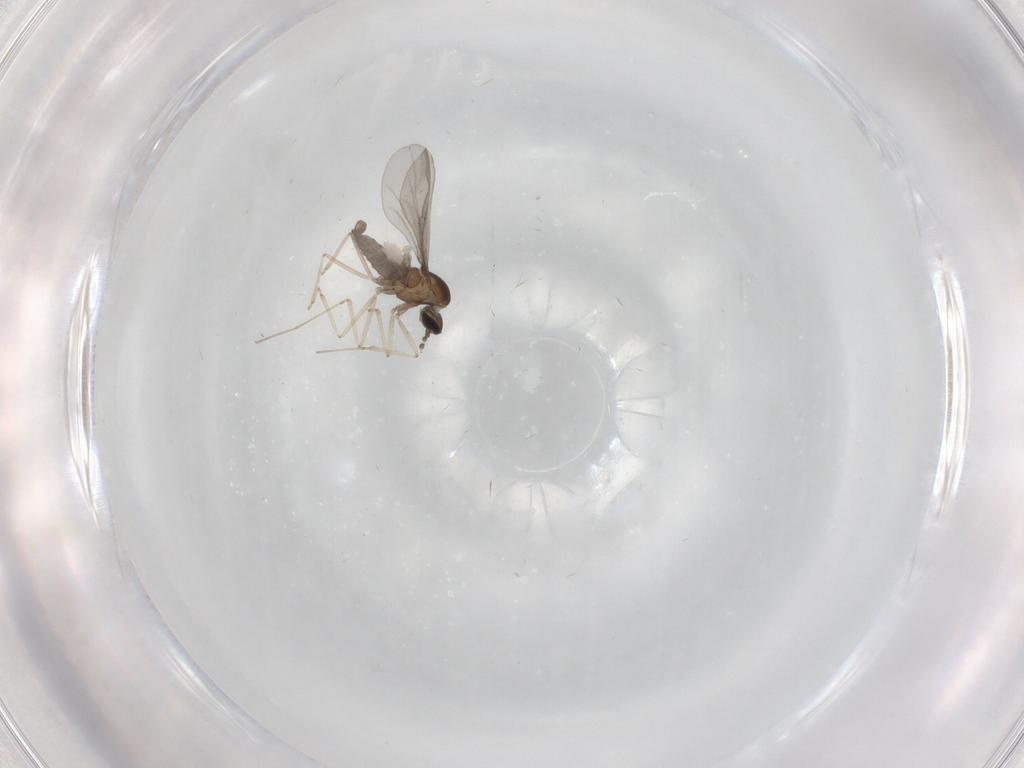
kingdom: Animalia
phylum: Arthropoda
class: Insecta
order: Diptera
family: Cecidomyiidae
